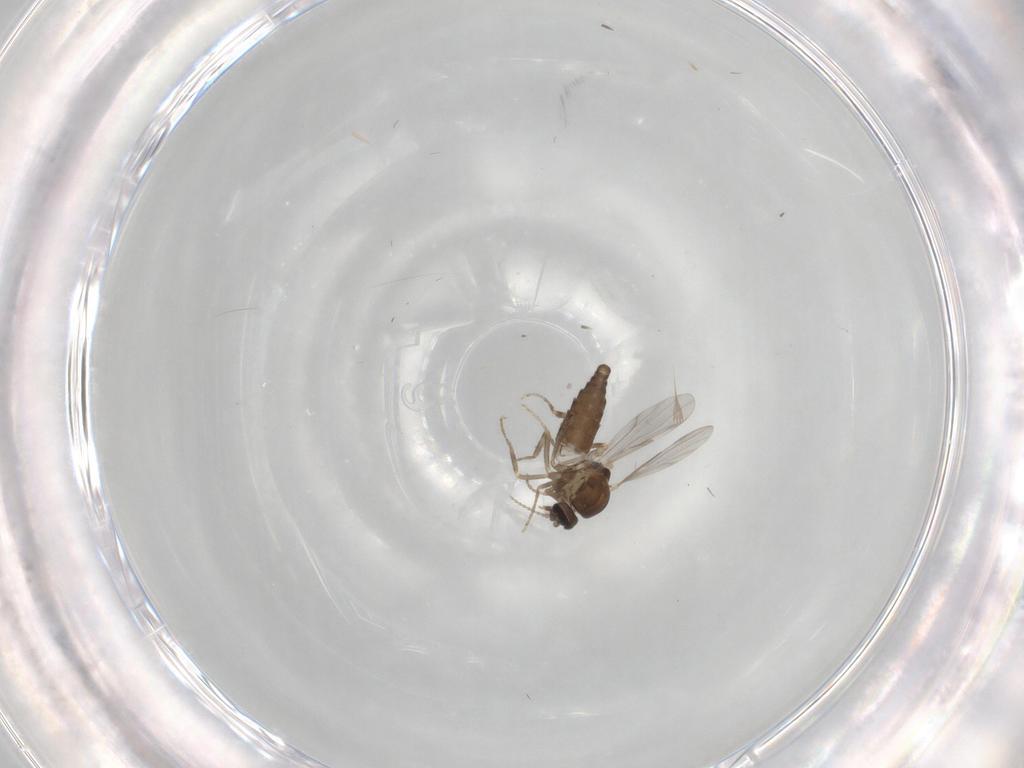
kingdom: Animalia
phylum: Arthropoda
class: Insecta
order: Diptera
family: Ceratopogonidae
